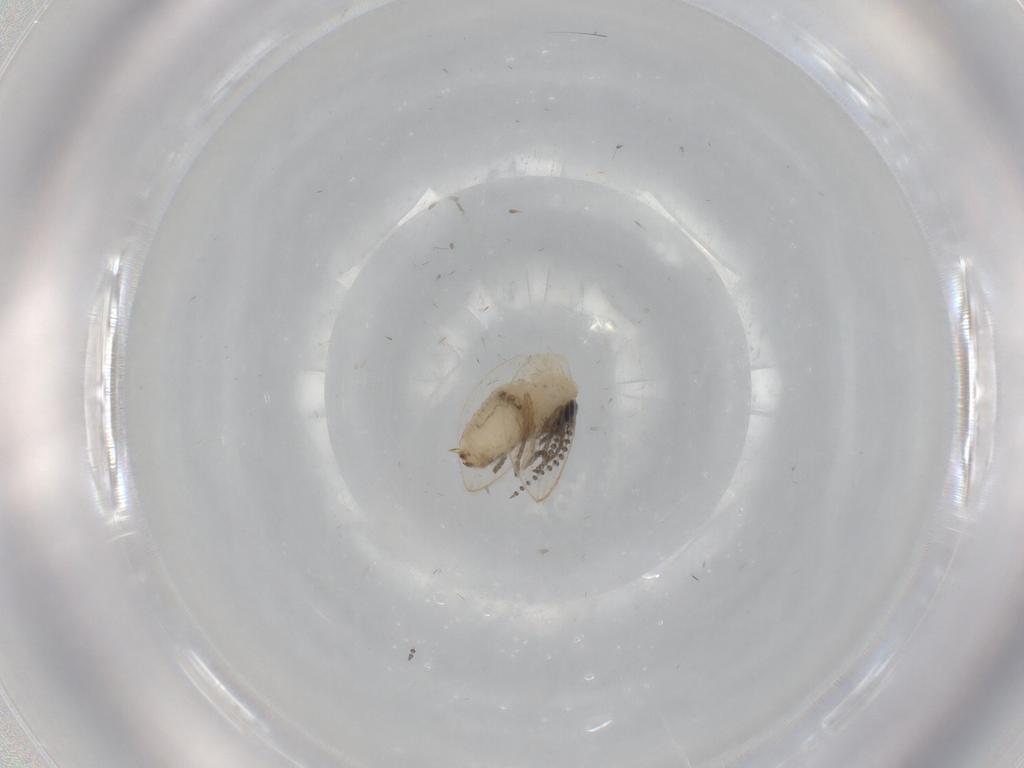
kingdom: Animalia
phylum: Arthropoda
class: Insecta
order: Diptera
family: Psychodidae
